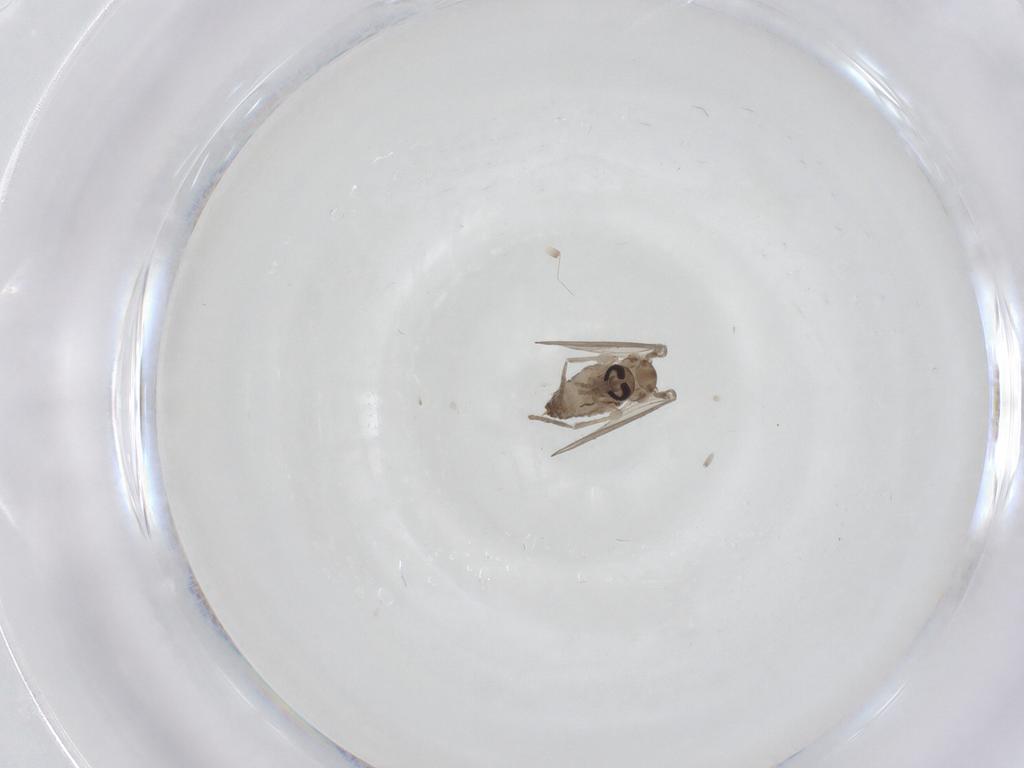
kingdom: Animalia
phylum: Arthropoda
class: Insecta
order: Diptera
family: Psychodidae
